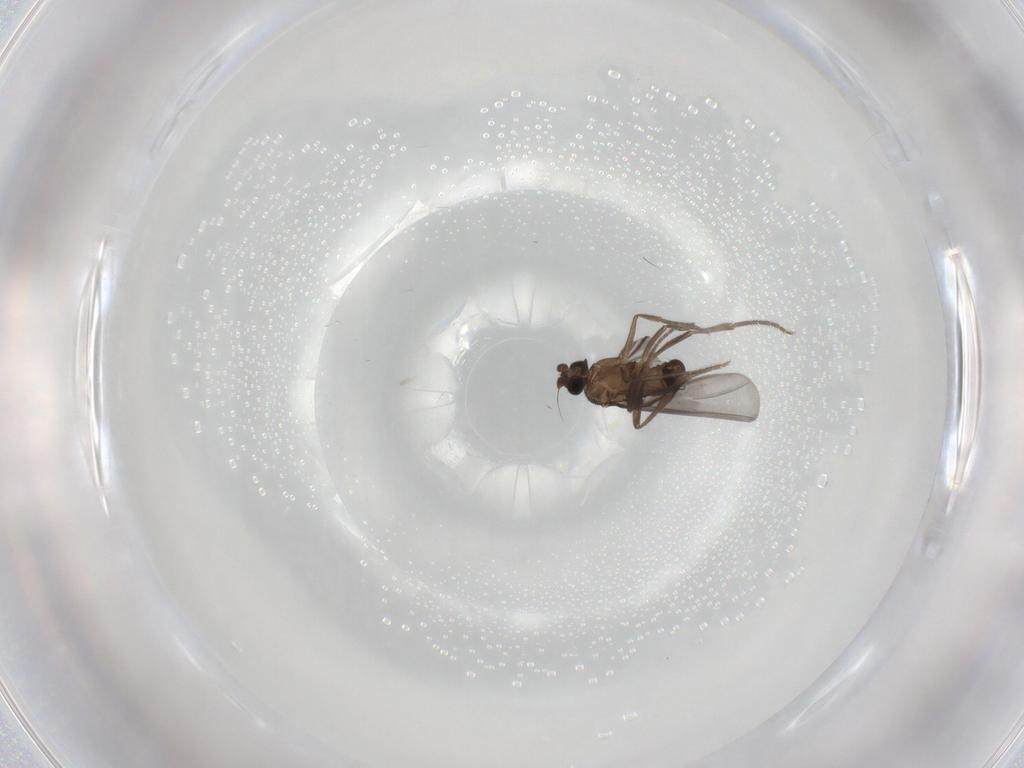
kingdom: Animalia
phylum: Arthropoda
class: Insecta
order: Diptera
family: Phoridae
